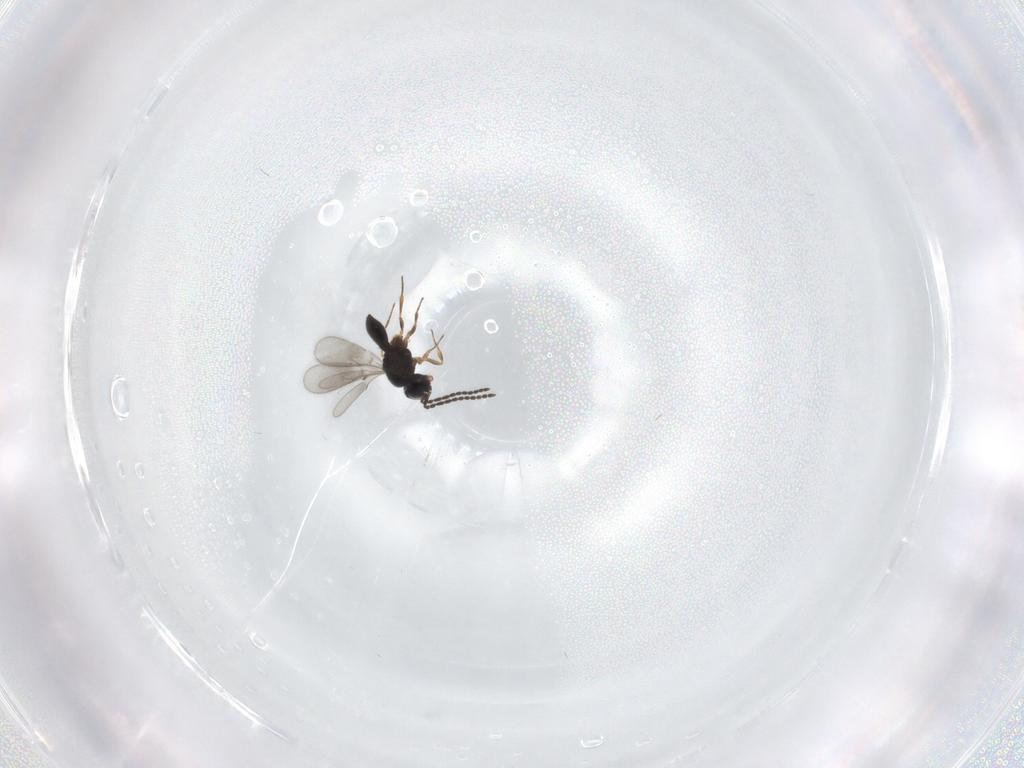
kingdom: Animalia
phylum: Arthropoda
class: Insecta
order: Hymenoptera
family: Scelionidae
